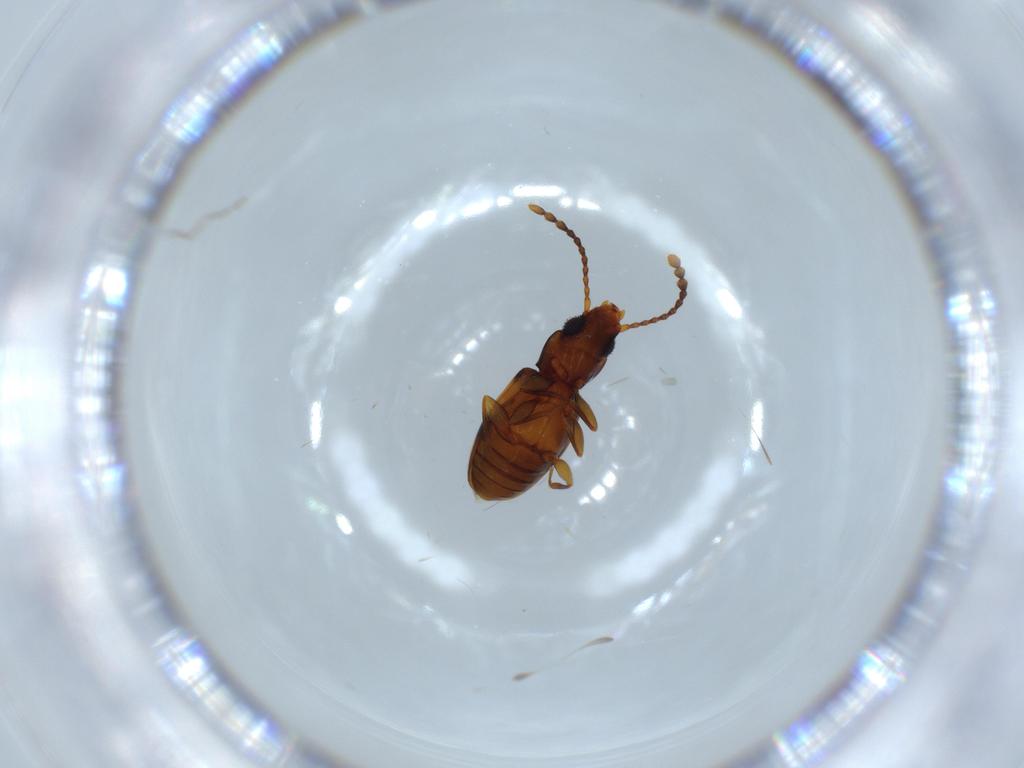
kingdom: Animalia
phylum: Arthropoda
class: Insecta
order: Coleoptera
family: Laemophloeidae
